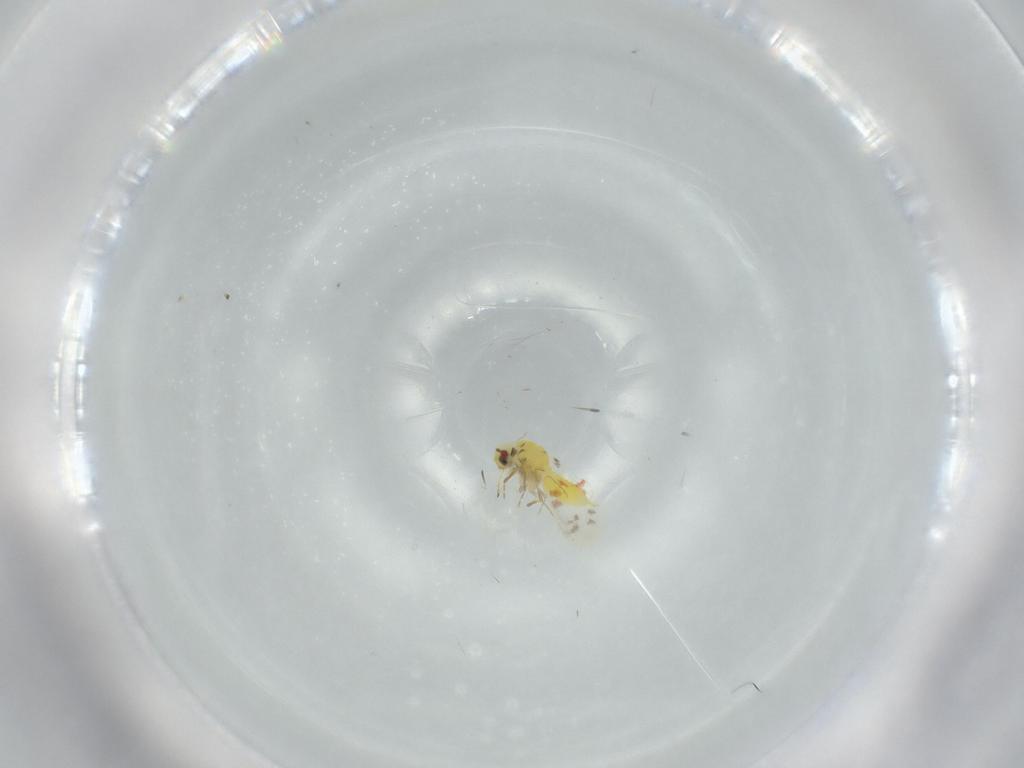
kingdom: Animalia
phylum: Arthropoda
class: Insecta
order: Hemiptera
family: Aleyrodidae
